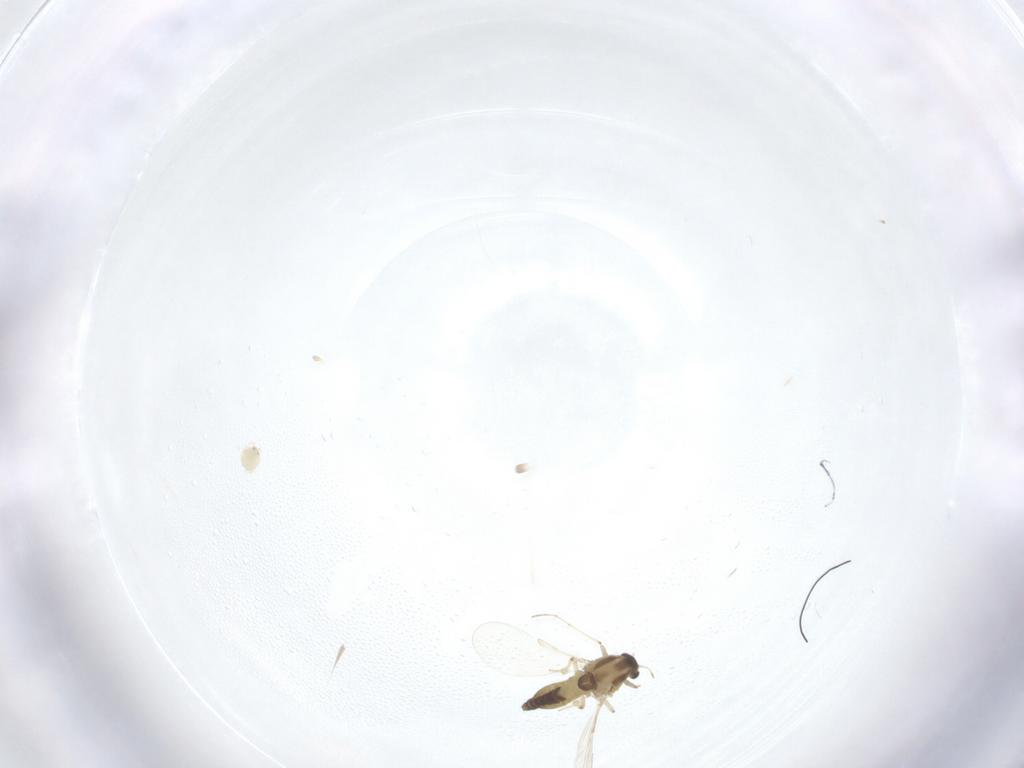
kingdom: Animalia
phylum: Arthropoda
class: Insecta
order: Diptera
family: Chironomidae
